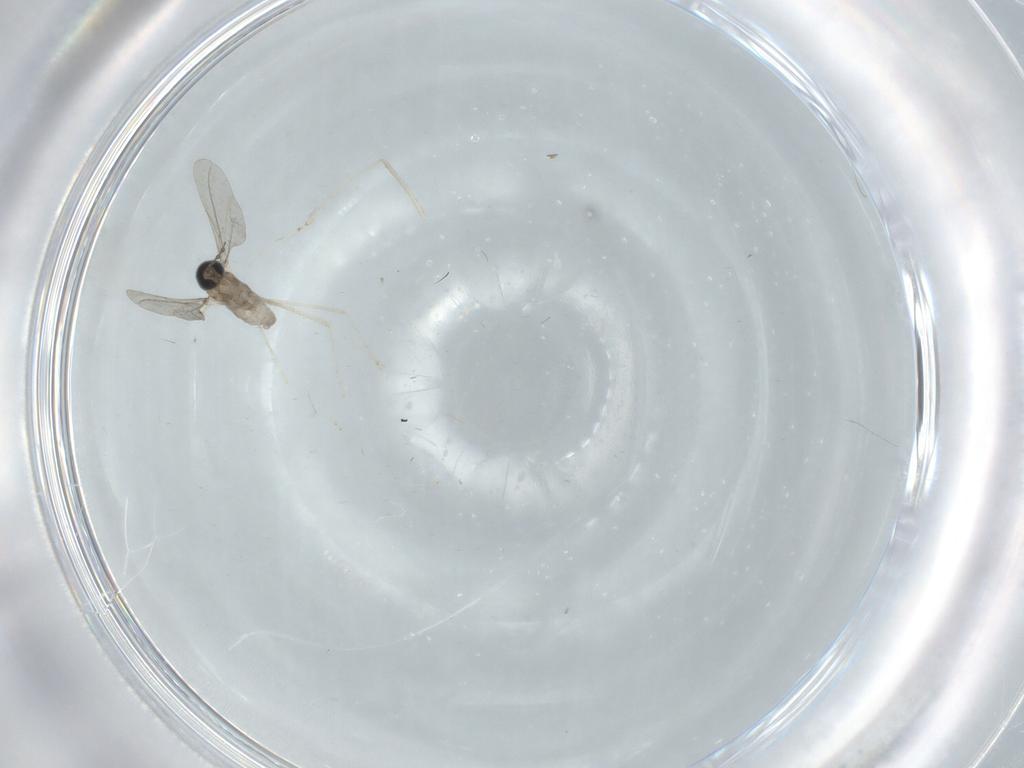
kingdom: Animalia
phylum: Arthropoda
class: Insecta
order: Diptera
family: Cecidomyiidae
